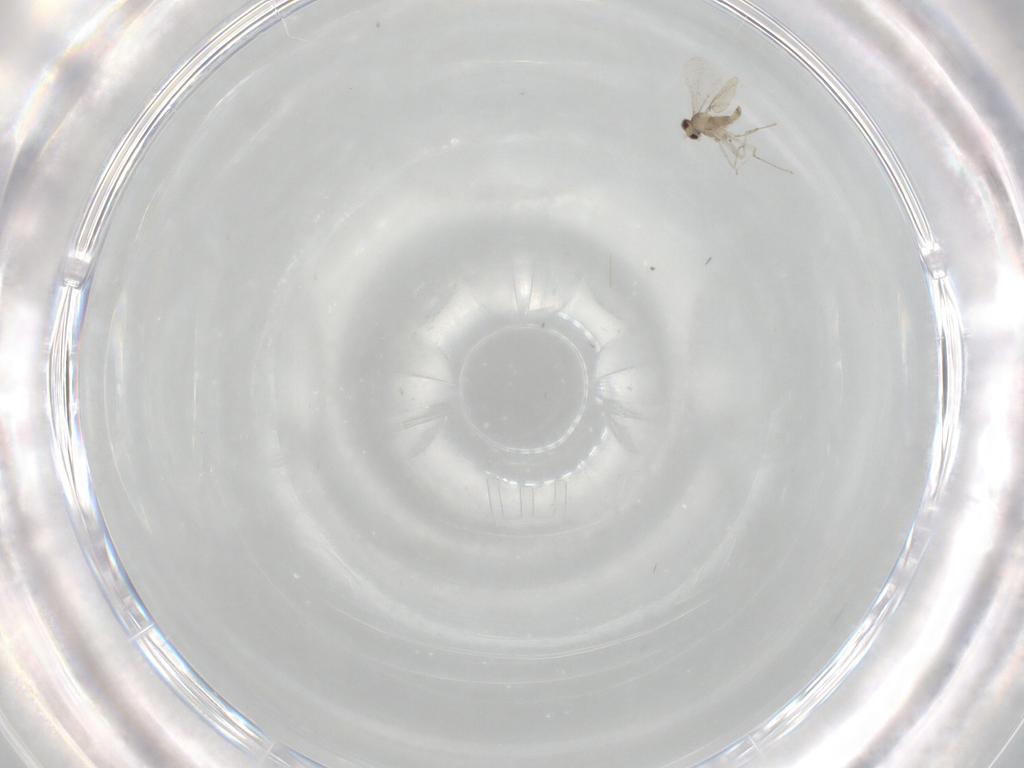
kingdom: Animalia
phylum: Arthropoda
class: Insecta
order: Diptera
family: Cecidomyiidae
